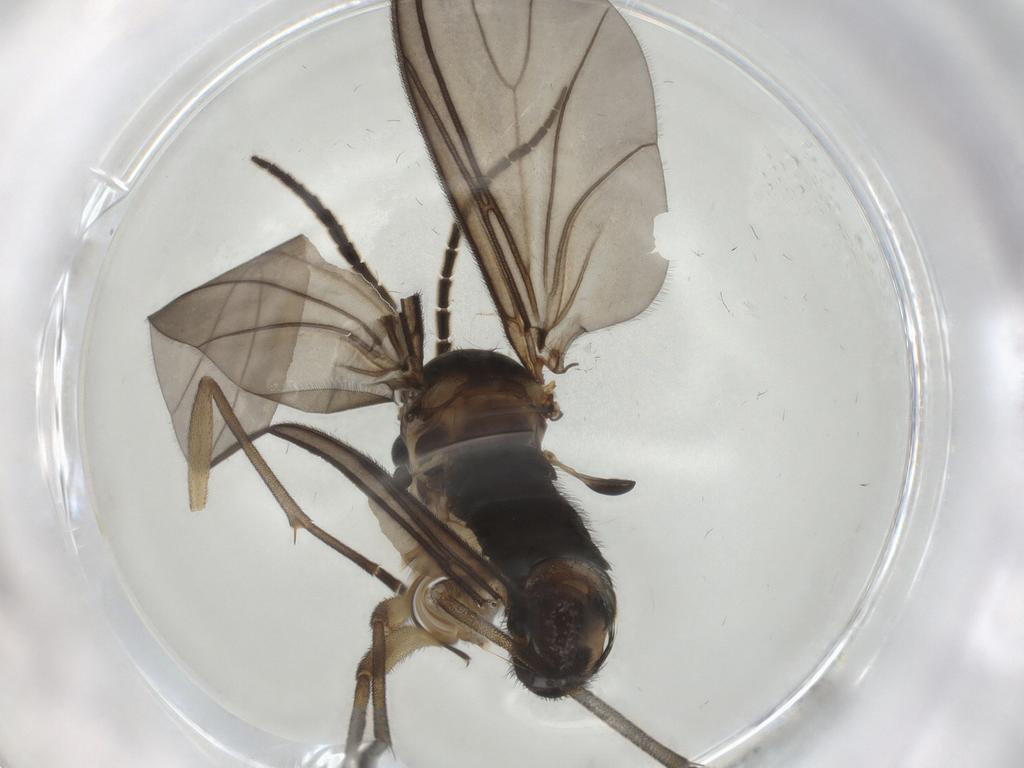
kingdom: Animalia
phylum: Arthropoda
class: Insecta
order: Diptera
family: Sciaridae
